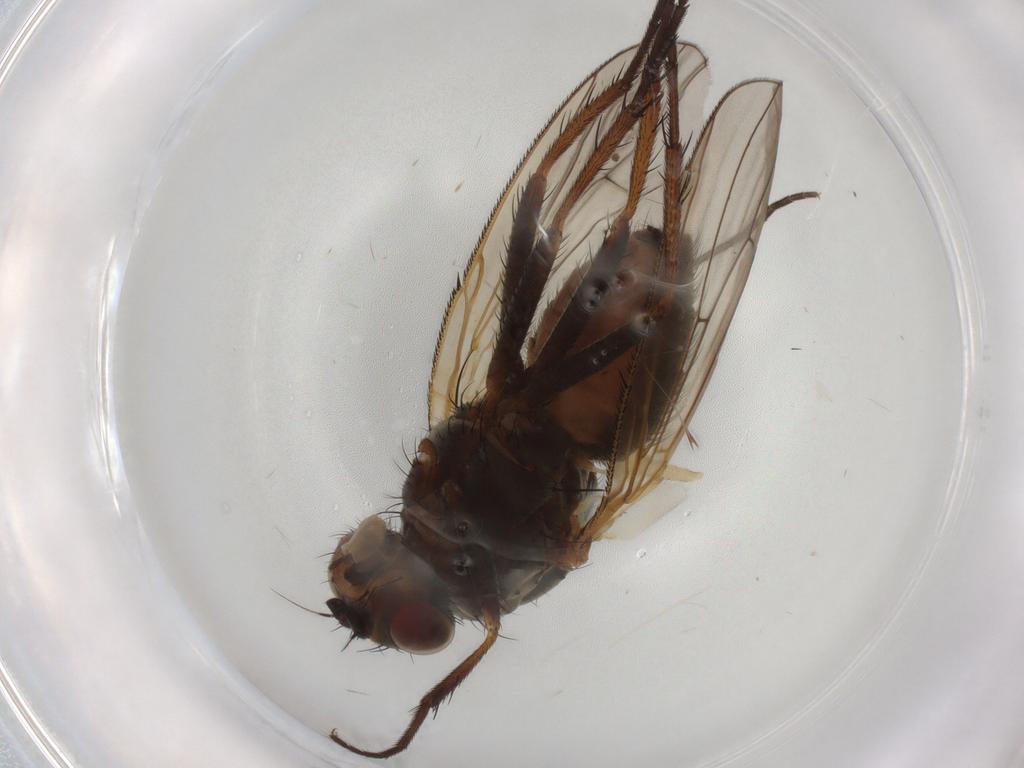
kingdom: Animalia
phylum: Arthropoda
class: Insecta
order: Diptera
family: Anthomyiidae
